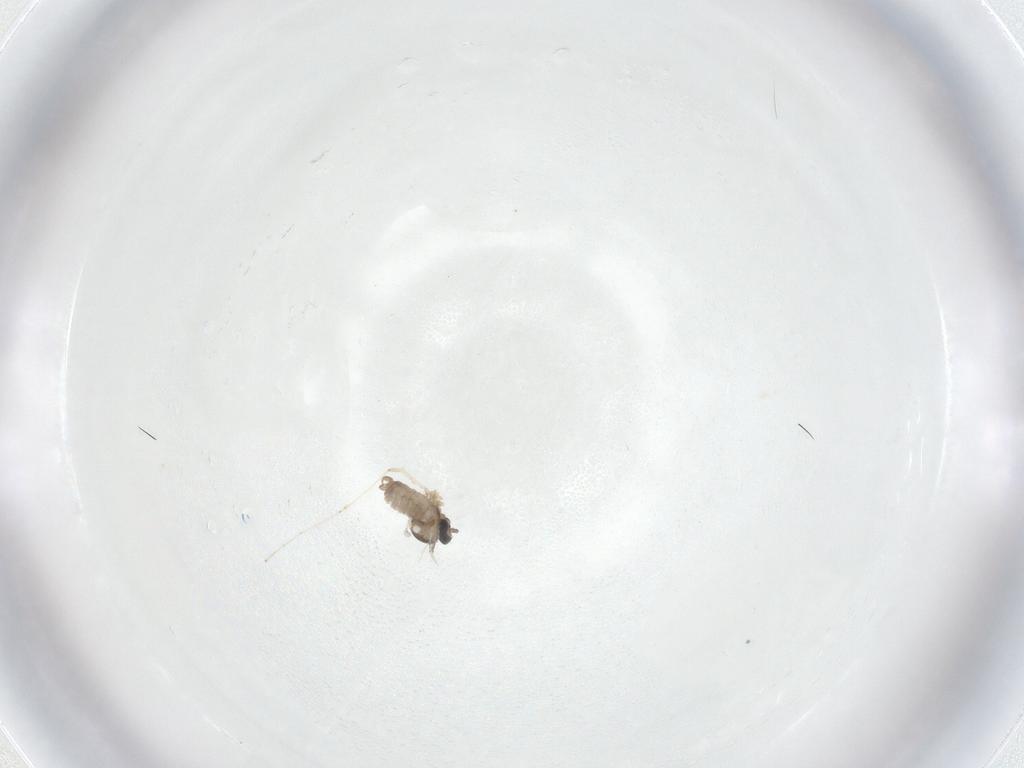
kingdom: Animalia
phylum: Arthropoda
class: Insecta
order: Diptera
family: Cecidomyiidae
